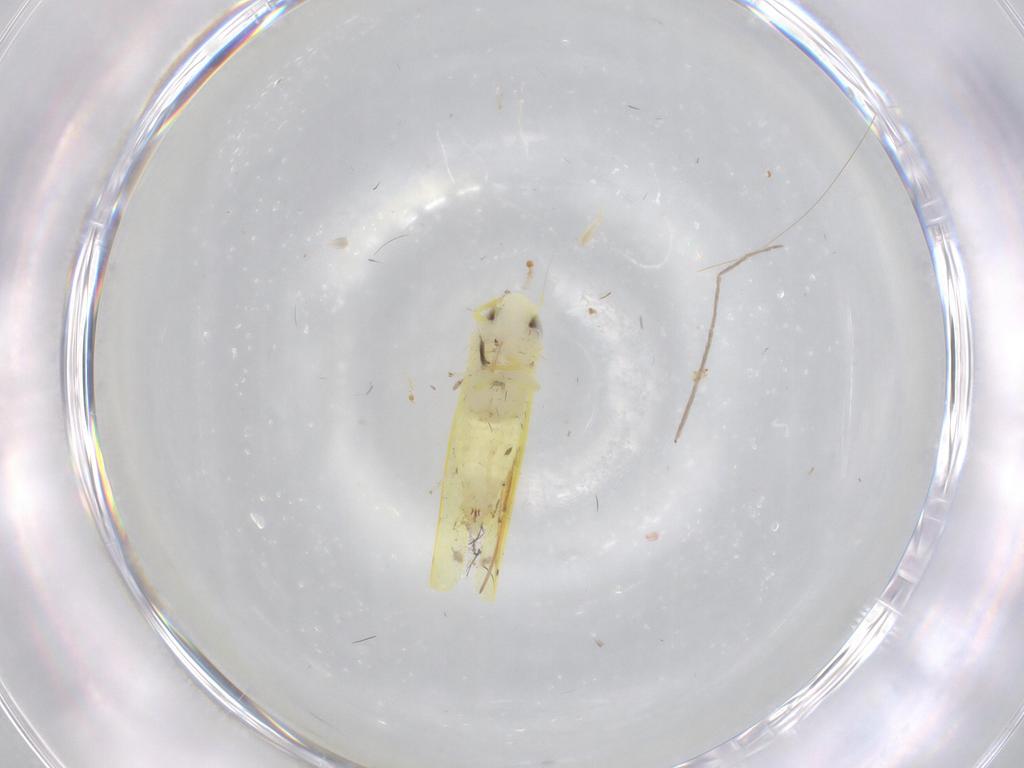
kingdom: Animalia
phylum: Arthropoda
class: Insecta
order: Hemiptera
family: Cicadellidae
